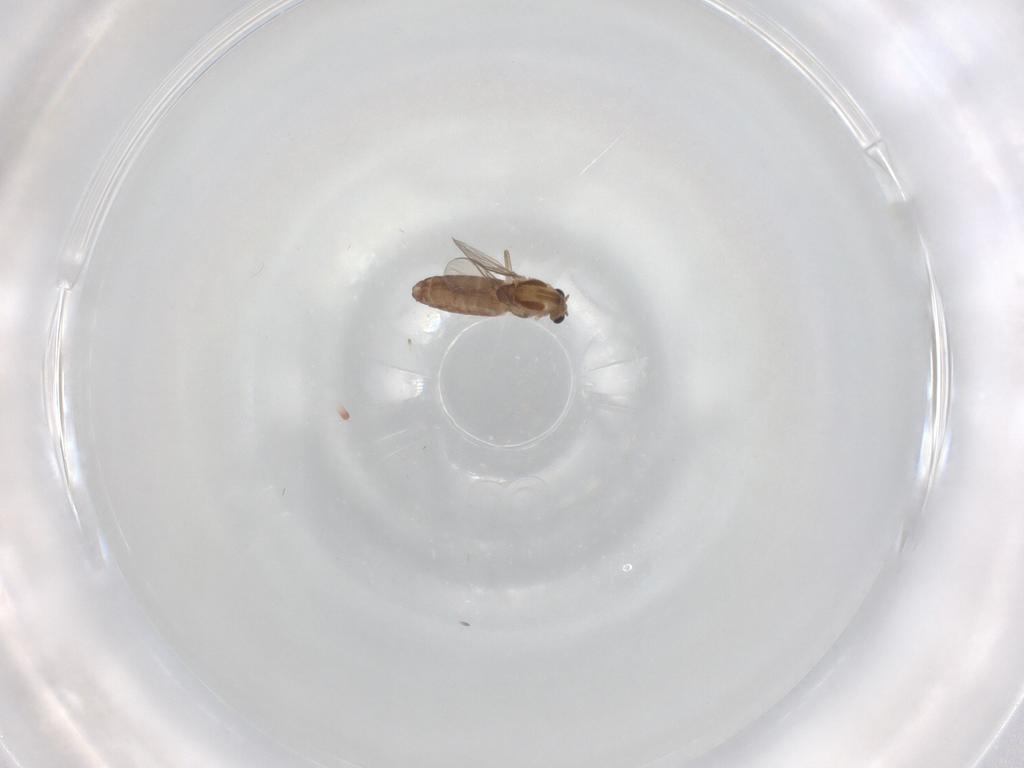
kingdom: Animalia
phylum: Arthropoda
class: Insecta
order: Diptera
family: Chironomidae
